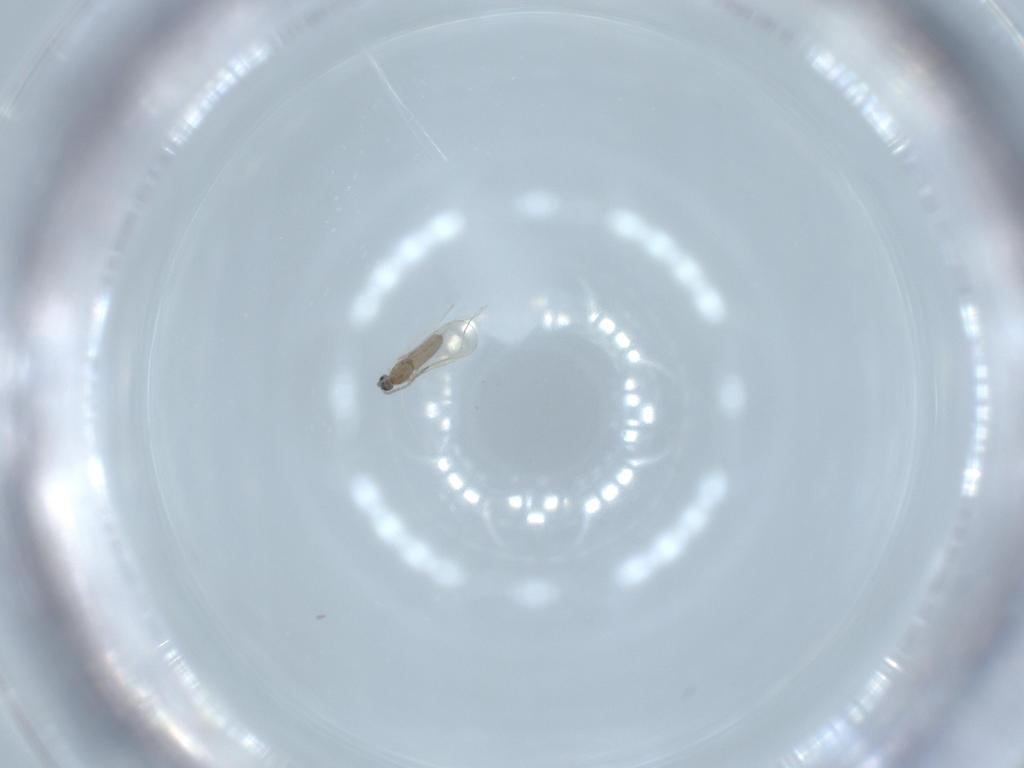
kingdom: Animalia
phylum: Arthropoda
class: Insecta
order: Diptera
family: Cecidomyiidae
